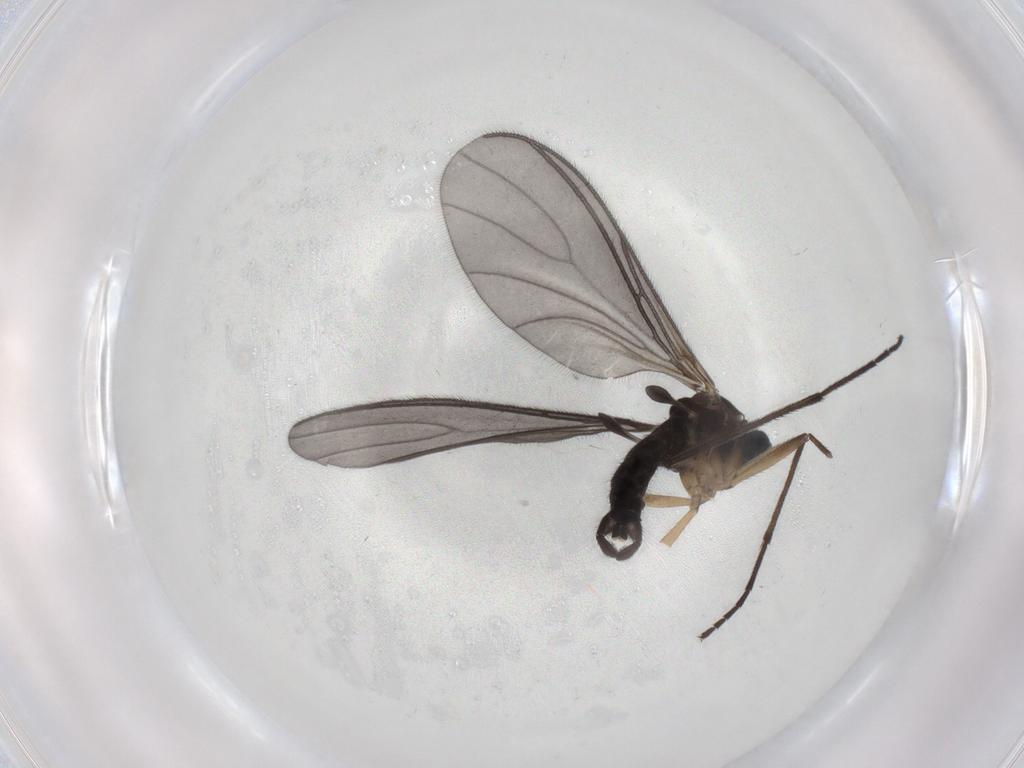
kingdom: Animalia
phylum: Arthropoda
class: Insecta
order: Diptera
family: Sciaridae
